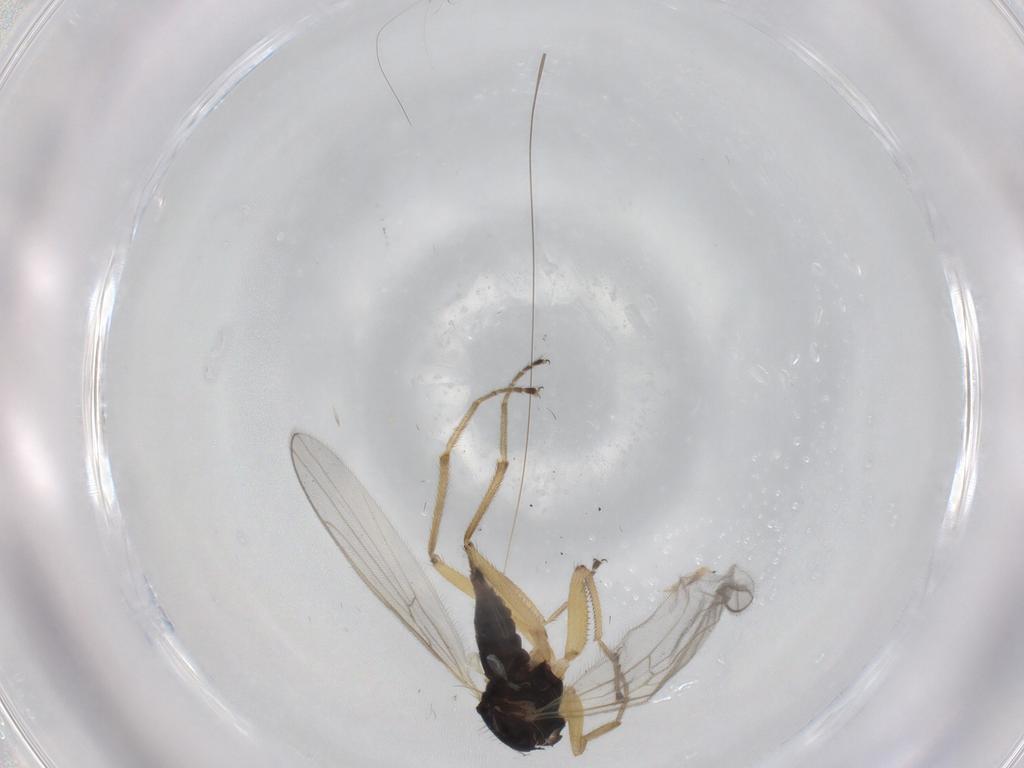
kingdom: Animalia
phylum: Arthropoda
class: Insecta
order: Diptera
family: Hybotidae
